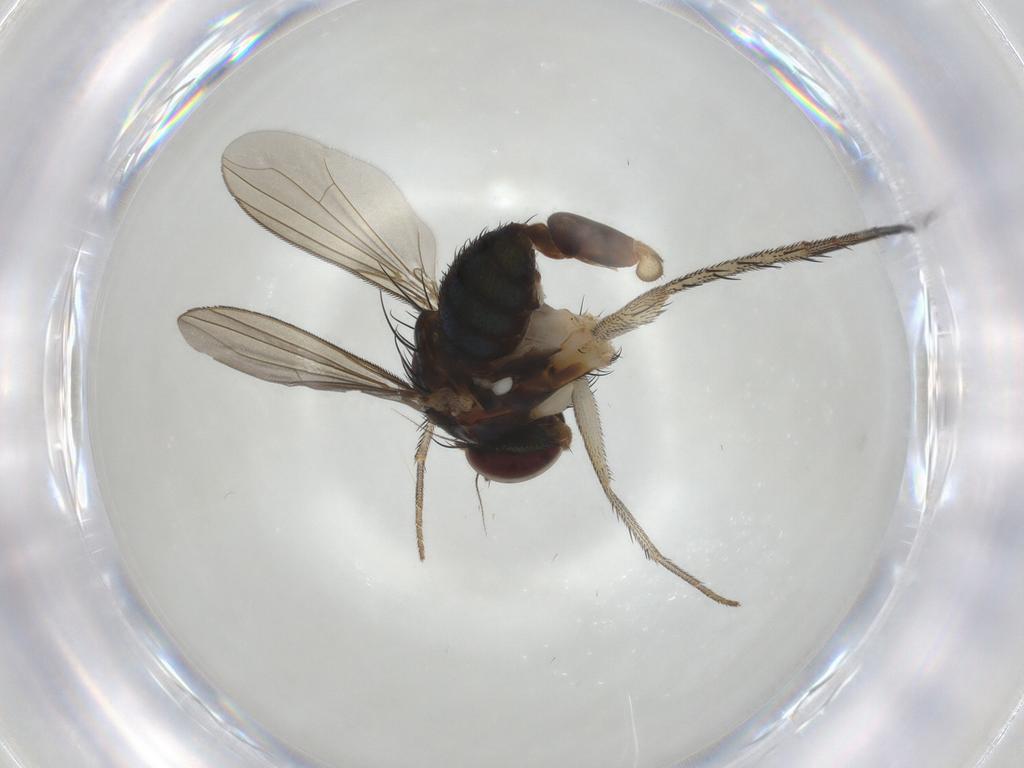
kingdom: Animalia
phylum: Arthropoda
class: Insecta
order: Diptera
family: Dolichopodidae
